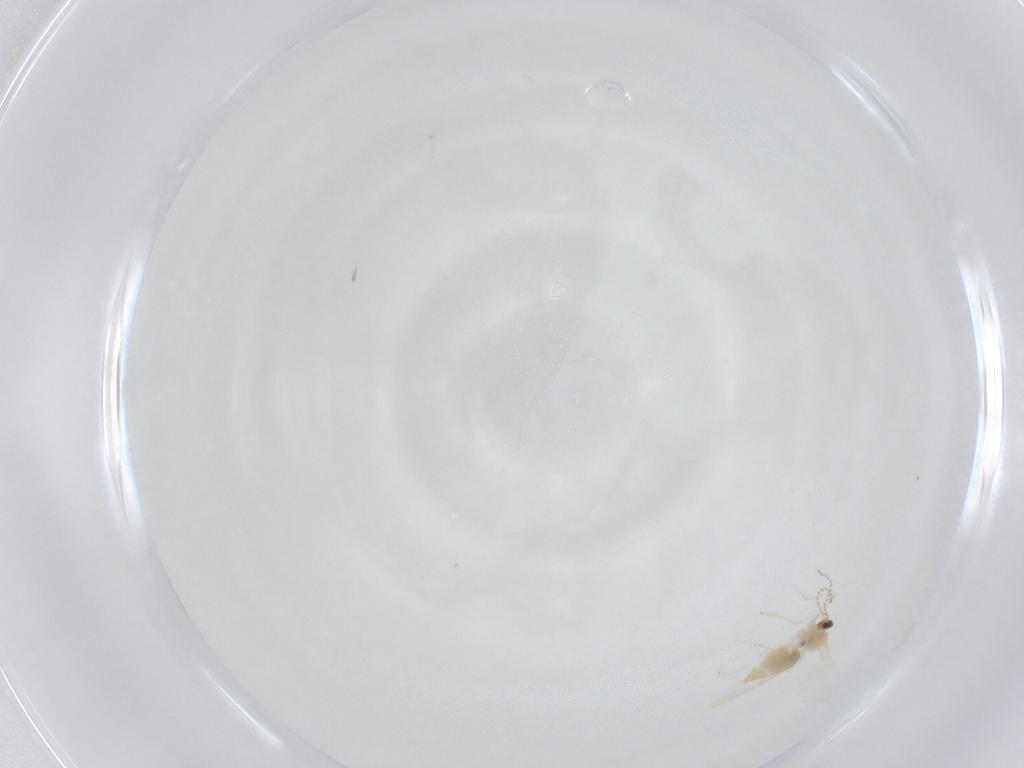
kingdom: Animalia
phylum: Arthropoda
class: Insecta
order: Diptera
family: Cecidomyiidae
